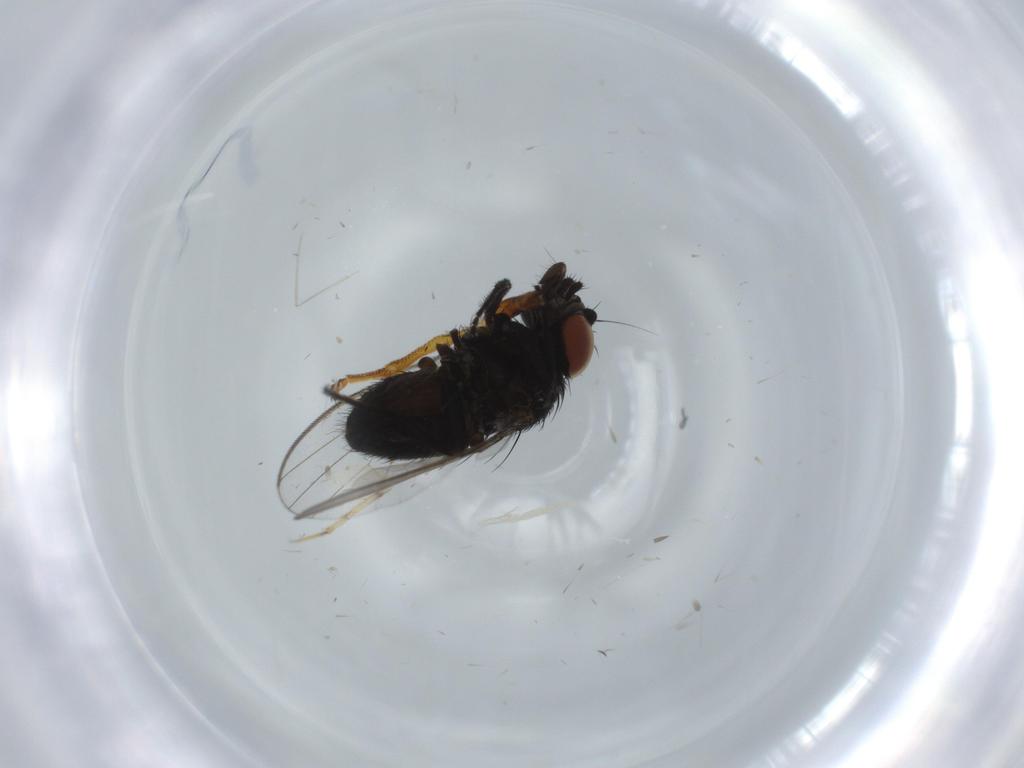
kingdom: Animalia
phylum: Arthropoda
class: Insecta
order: Diptera
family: Milichiidae
